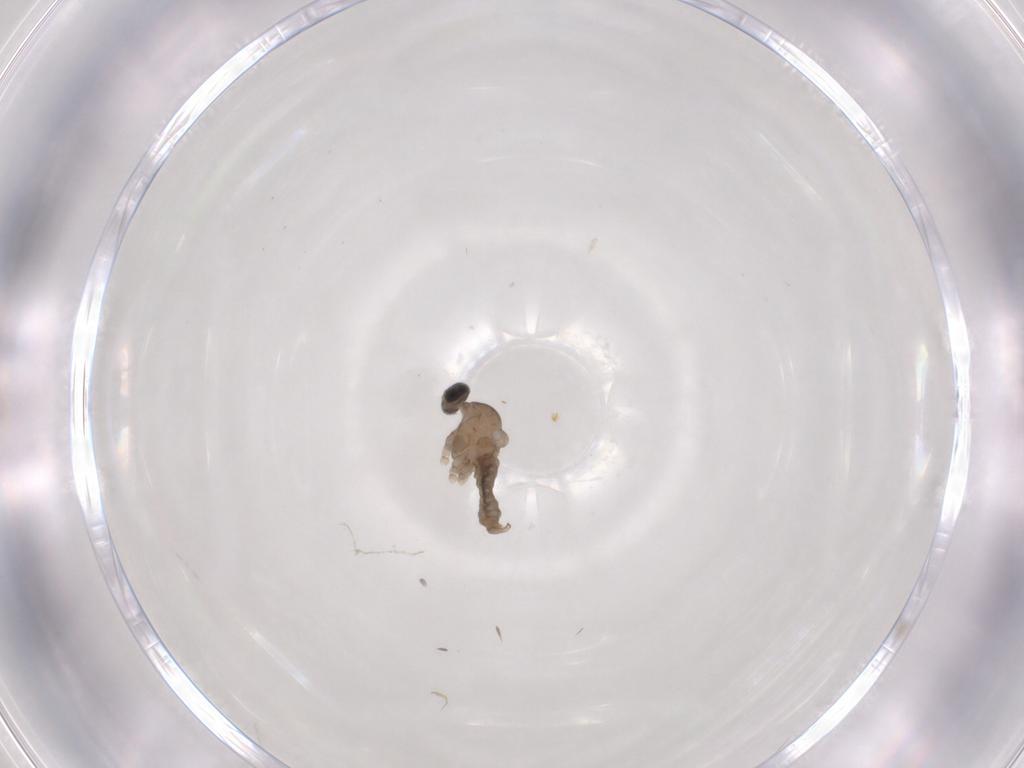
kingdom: Animalia
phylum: Arthropoda
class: Insecta
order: Diptera
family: Cecidomyiidae
